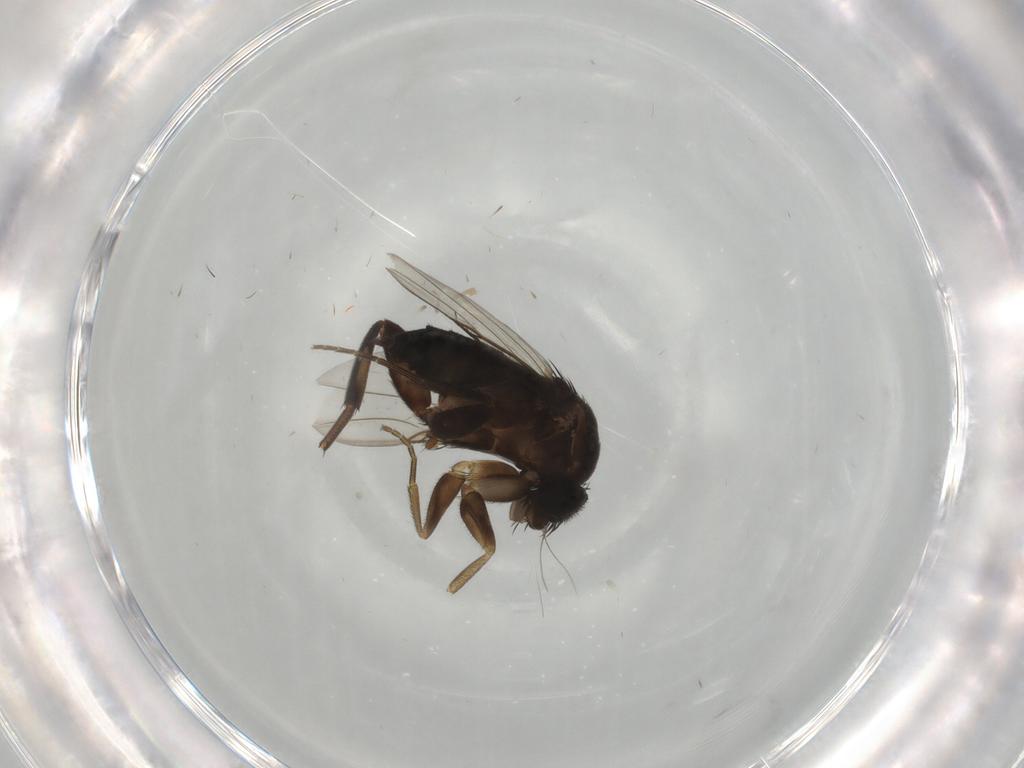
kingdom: Animalia
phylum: Arthropoda
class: Insecta
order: Diptera
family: Phoridae
